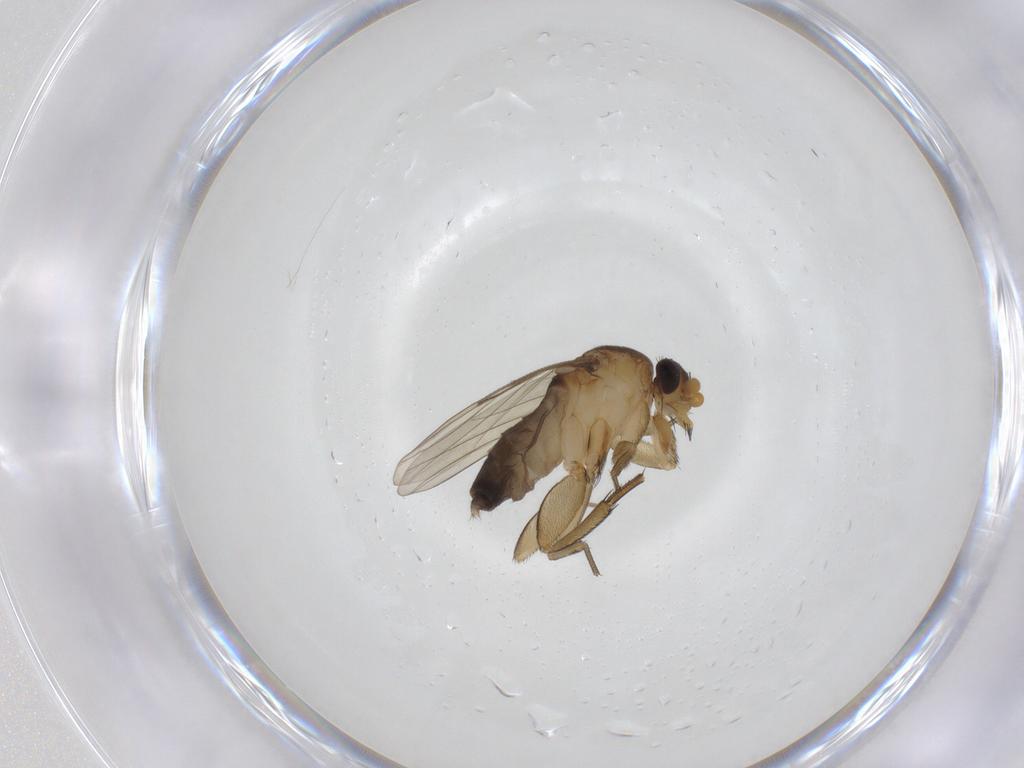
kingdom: Animalia
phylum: Arthropoda
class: Insecta
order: Diptera
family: Phoridae
